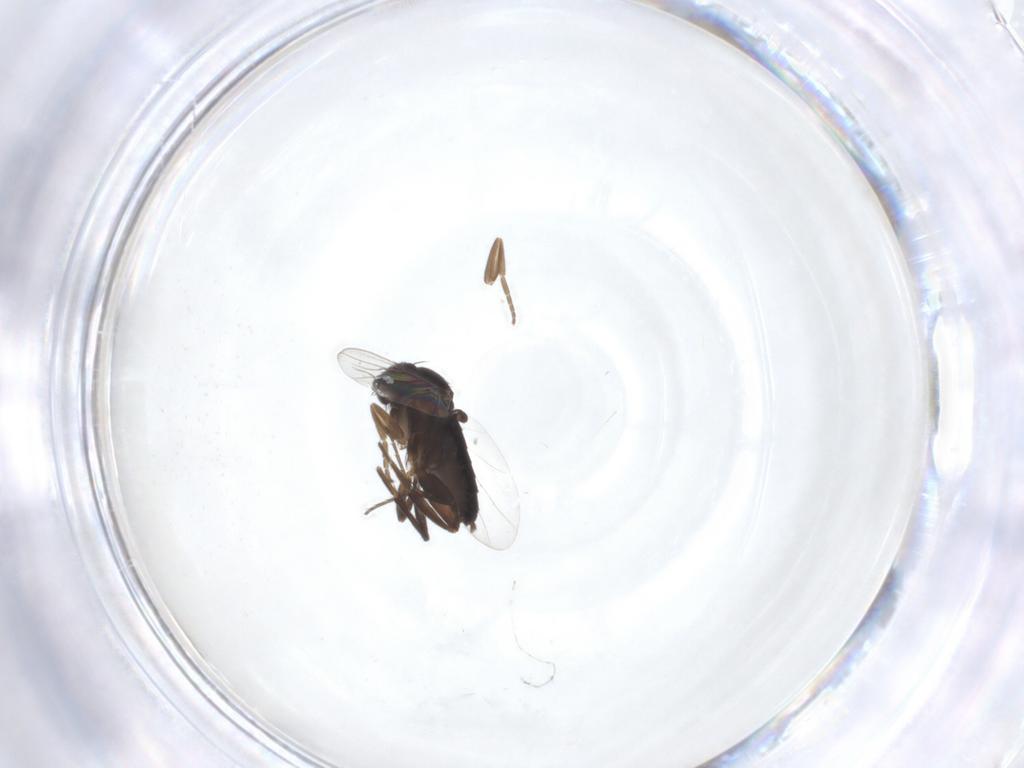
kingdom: Animalia
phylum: Arthropoda
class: Insecta
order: Diptera
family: Phoridae
